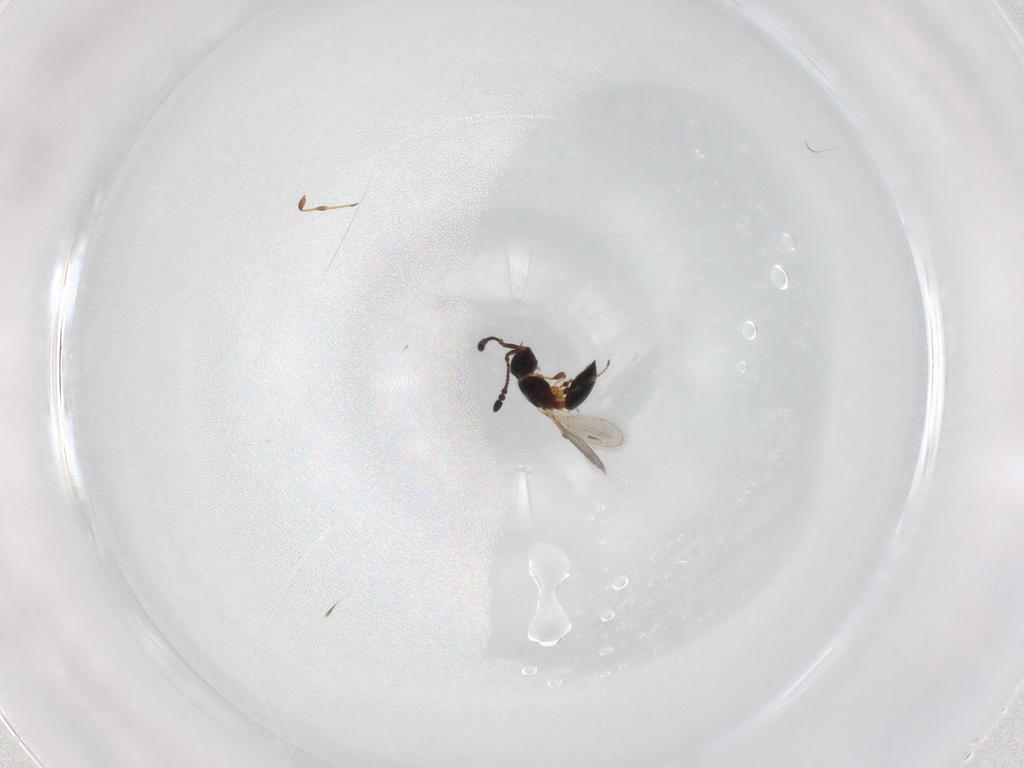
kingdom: Animalia
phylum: Arthropoda
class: Insecta
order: Hymenoptera
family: Diapriidae
